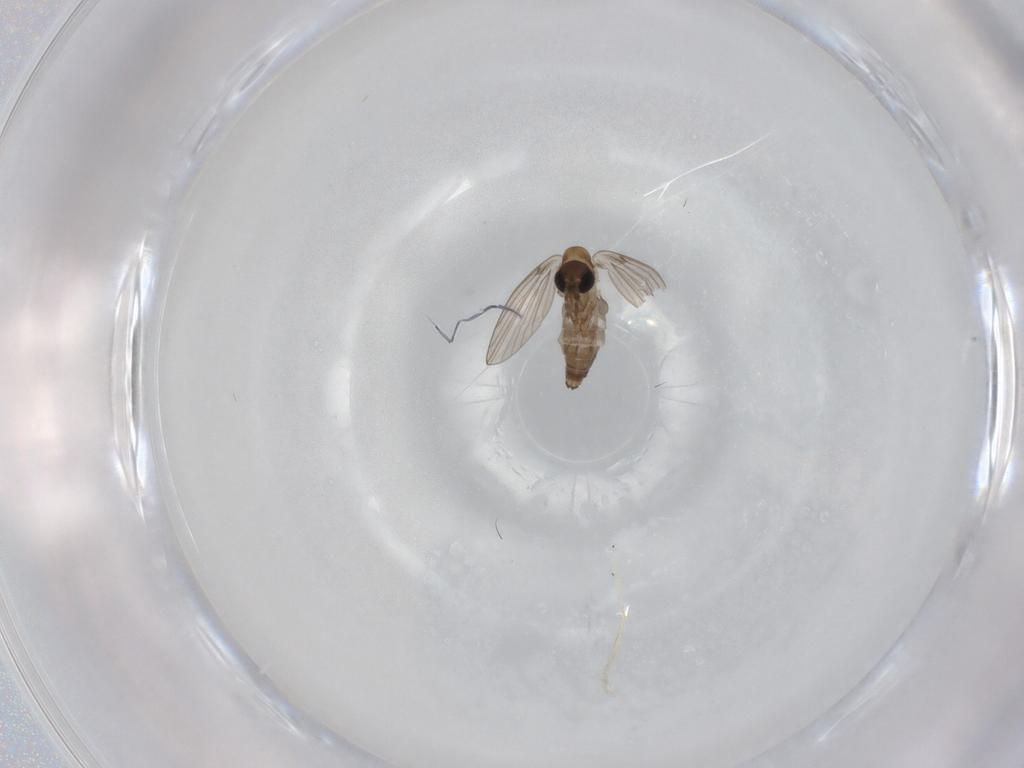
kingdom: Animalia
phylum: Arthropoda
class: Insecta
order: Diptera
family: Psychodidae
